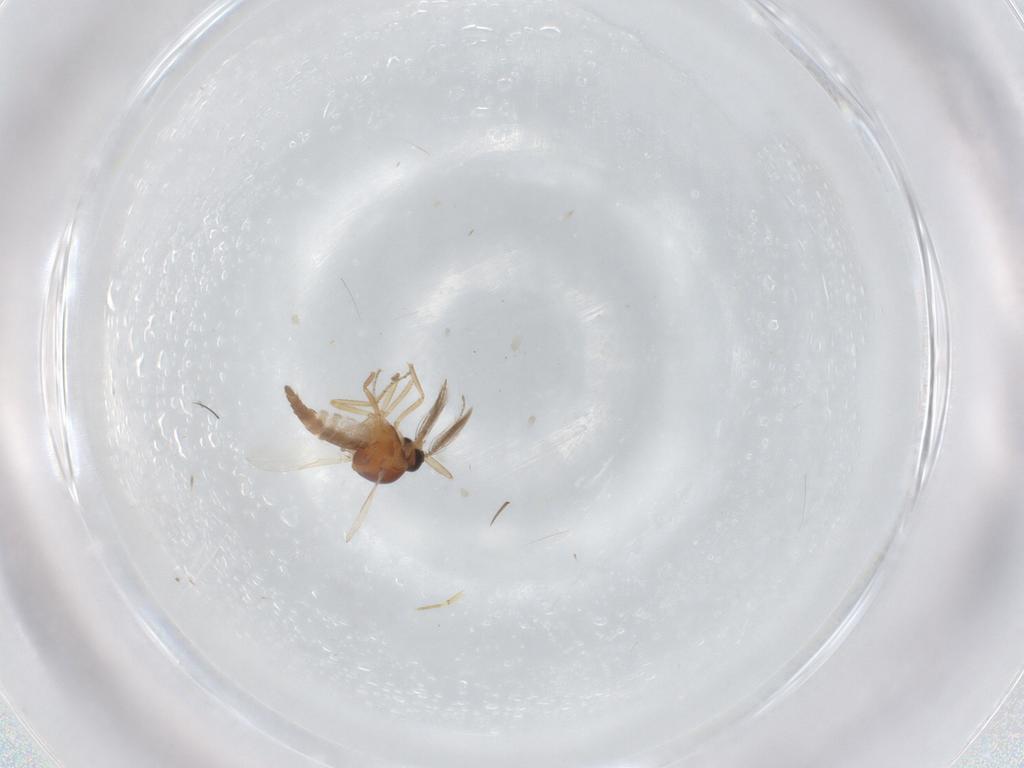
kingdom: Animalia
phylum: Arthropoda
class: Insecta
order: Diptera
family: Ceratopogonidae
